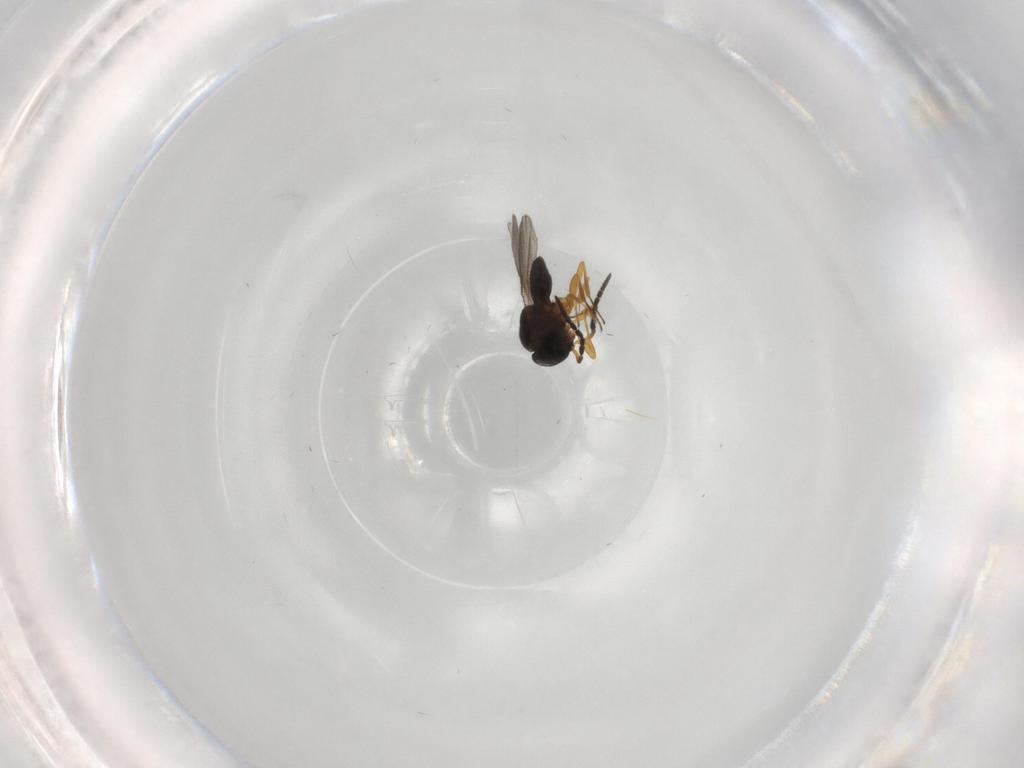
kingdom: Animalia
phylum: Arthropoda
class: Insecta
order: Coleoptera
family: Curculionidae
